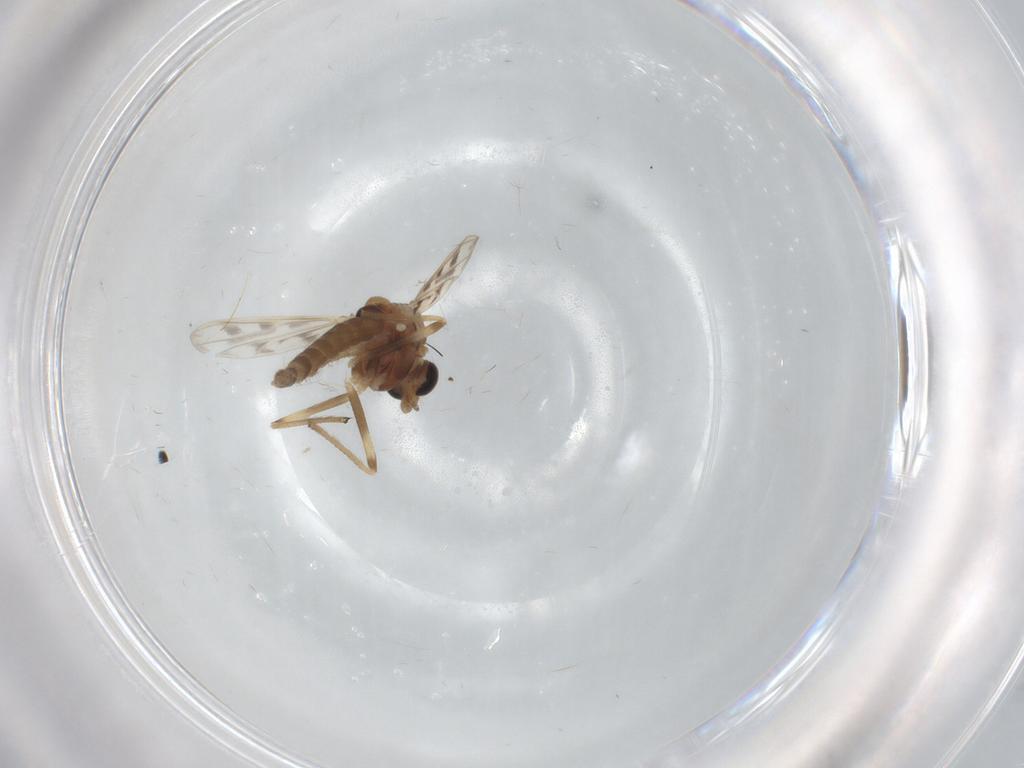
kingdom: Animalia
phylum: Arthropoda
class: Insecta
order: Diptera
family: Chironomidae
